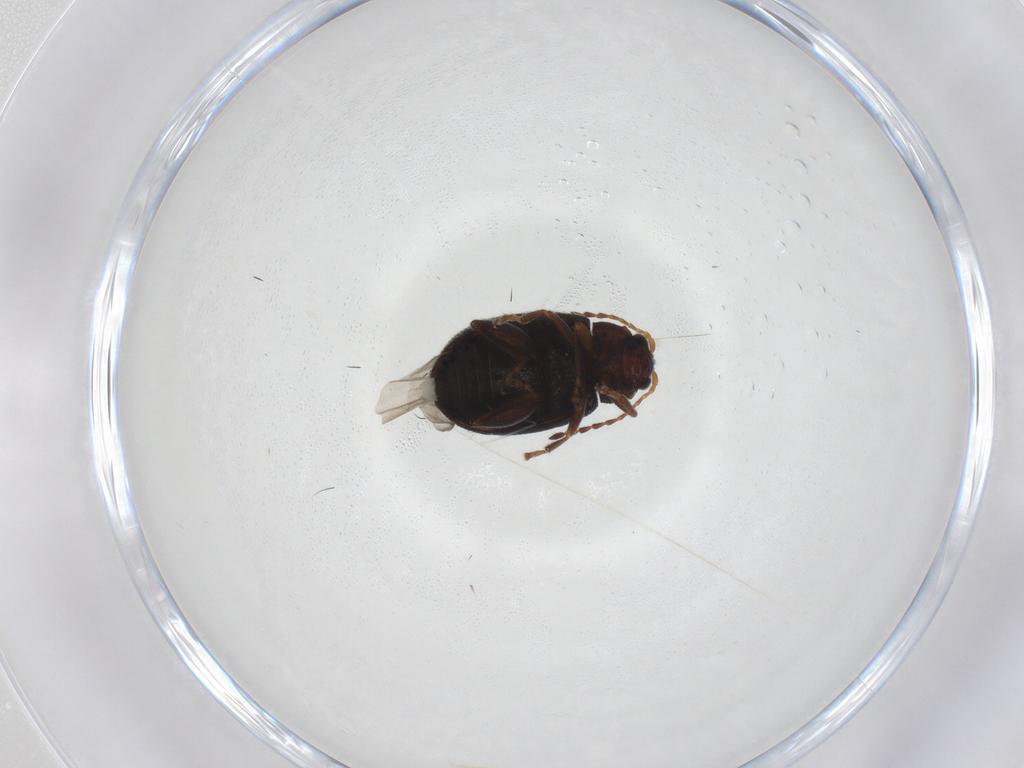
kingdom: Animalia
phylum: Arthropoda
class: Insecta
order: Coleoptera
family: Chrysomelidae
